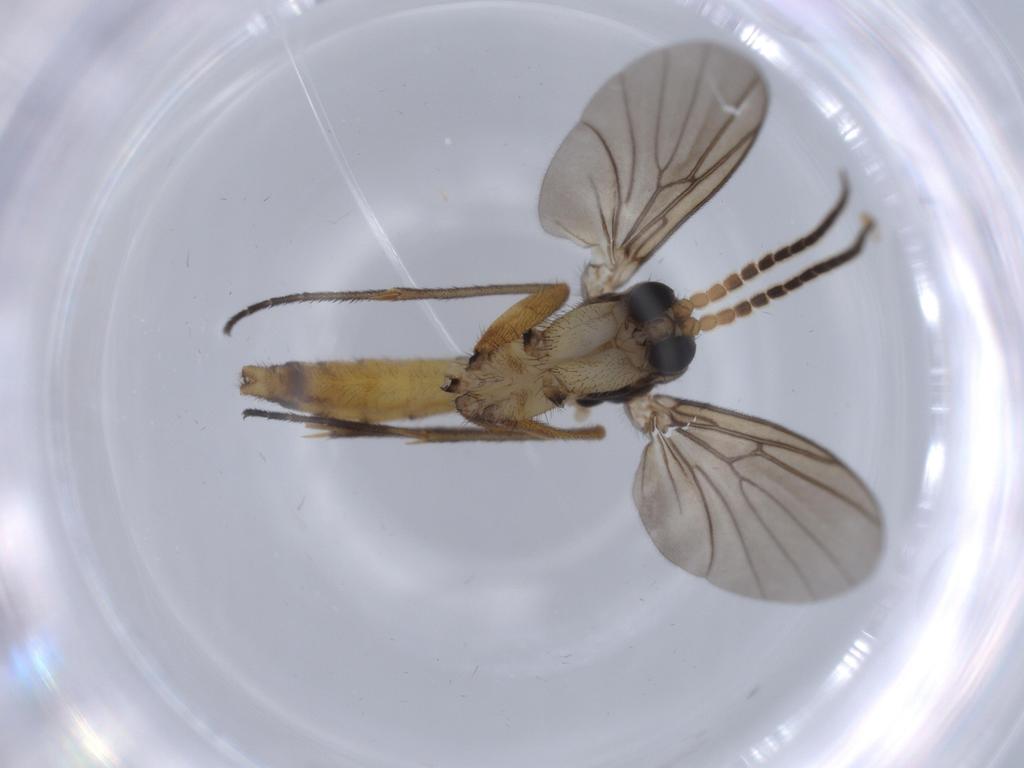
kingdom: Animalia
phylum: Arthropoda
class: Insecta
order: Diptera
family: Cecidomyiidae
